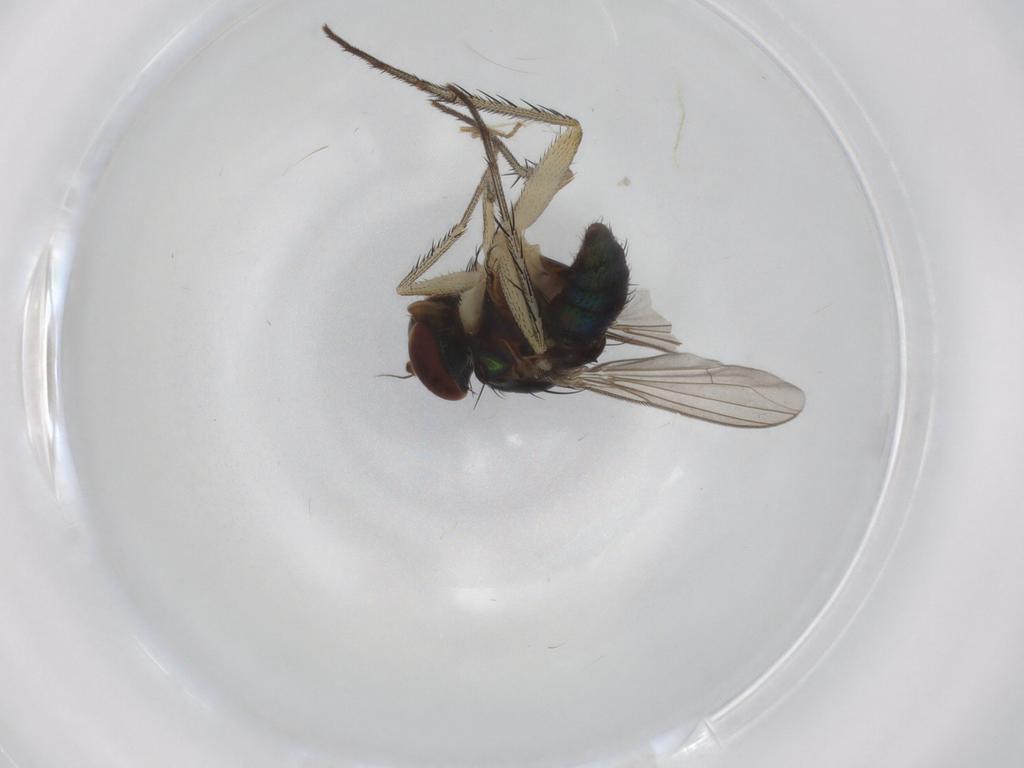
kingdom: Animalia
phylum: Arthropoda
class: Insecta
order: Diptera
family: Dolichopodidae
